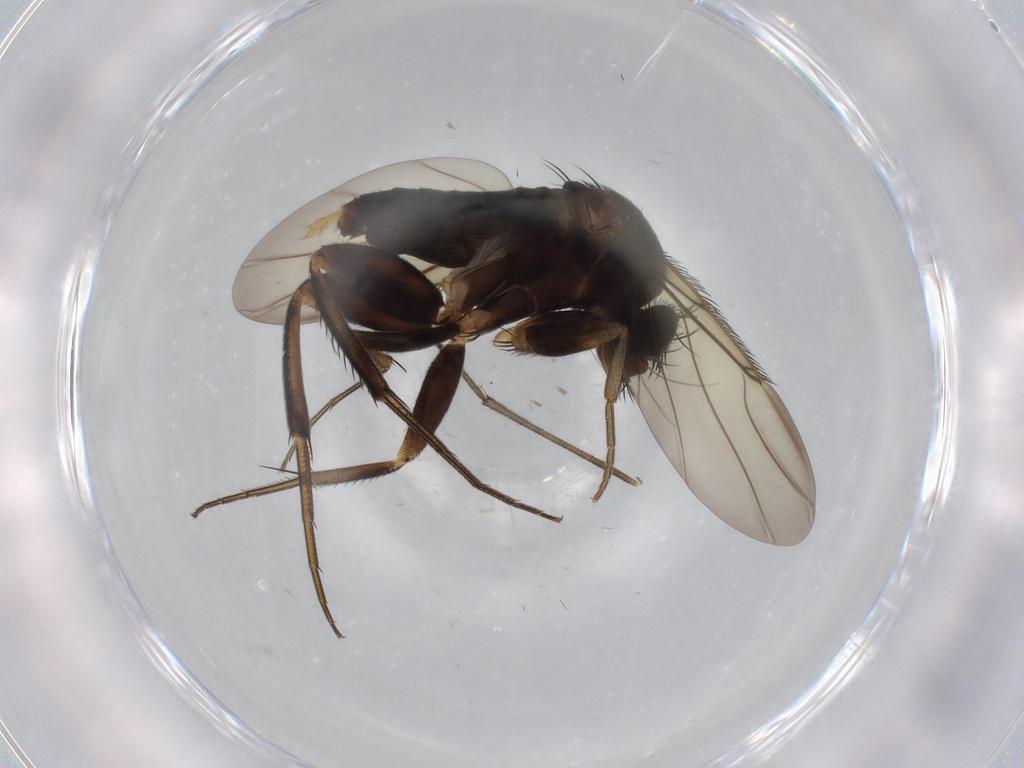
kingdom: Animalia
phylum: Arthropoda
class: Insecta
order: Diptera
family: Phoridae
